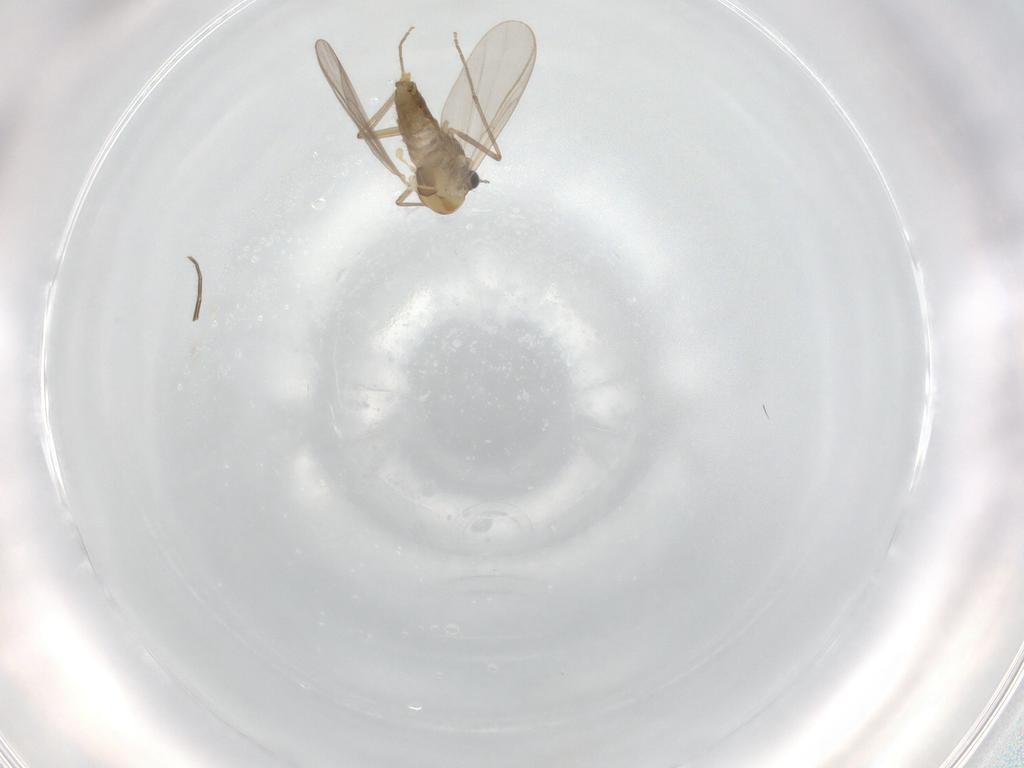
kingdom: Animalia
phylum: Arthropoda
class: Insecta
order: Diptera
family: Chironomidae
